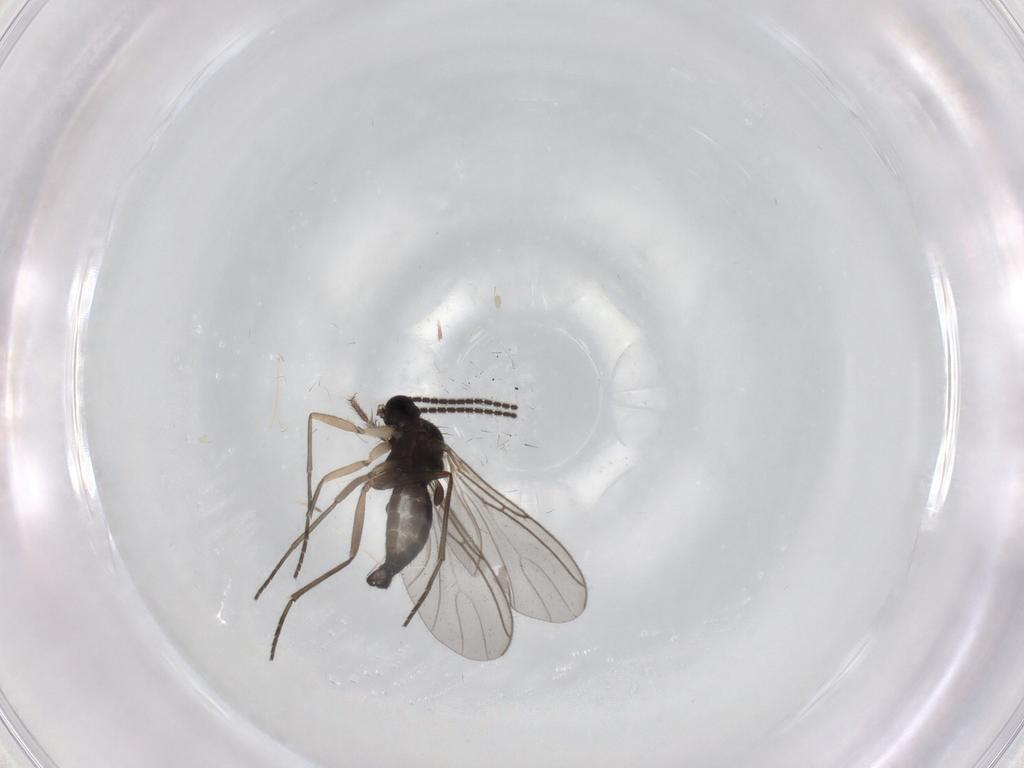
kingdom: Animalia
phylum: Arthropoda
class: Insecta
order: Diptera
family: Sciaridae
